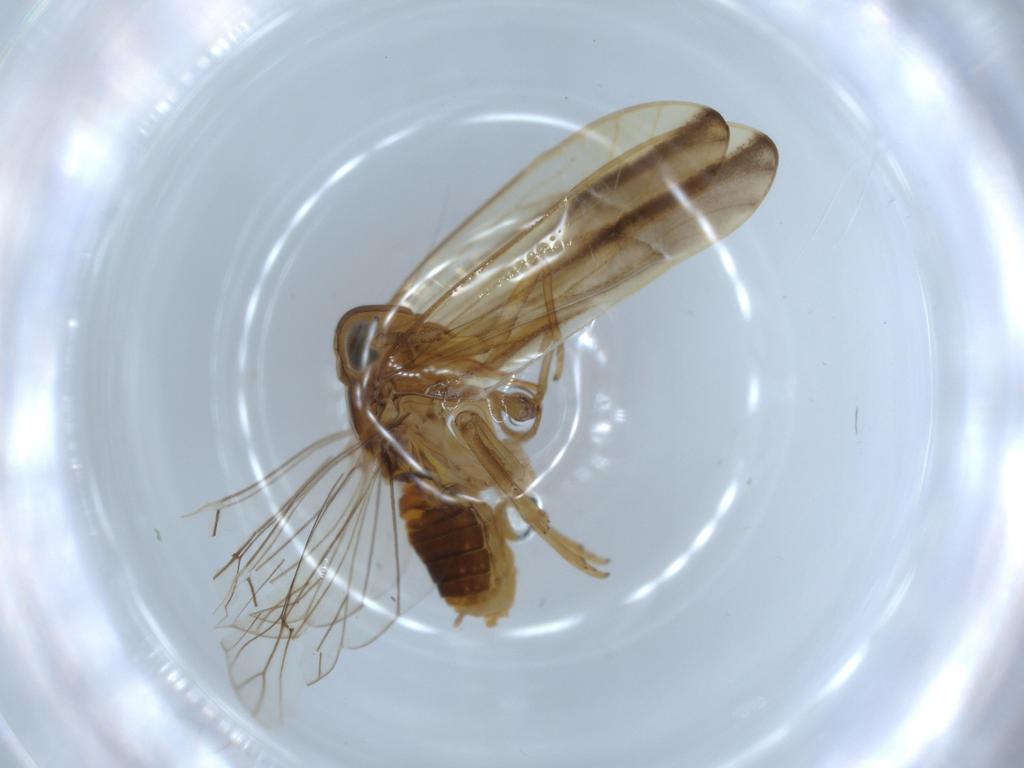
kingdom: Animalia
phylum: Arthropoda
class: Insecta
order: Hemiptera
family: Delphacidae
